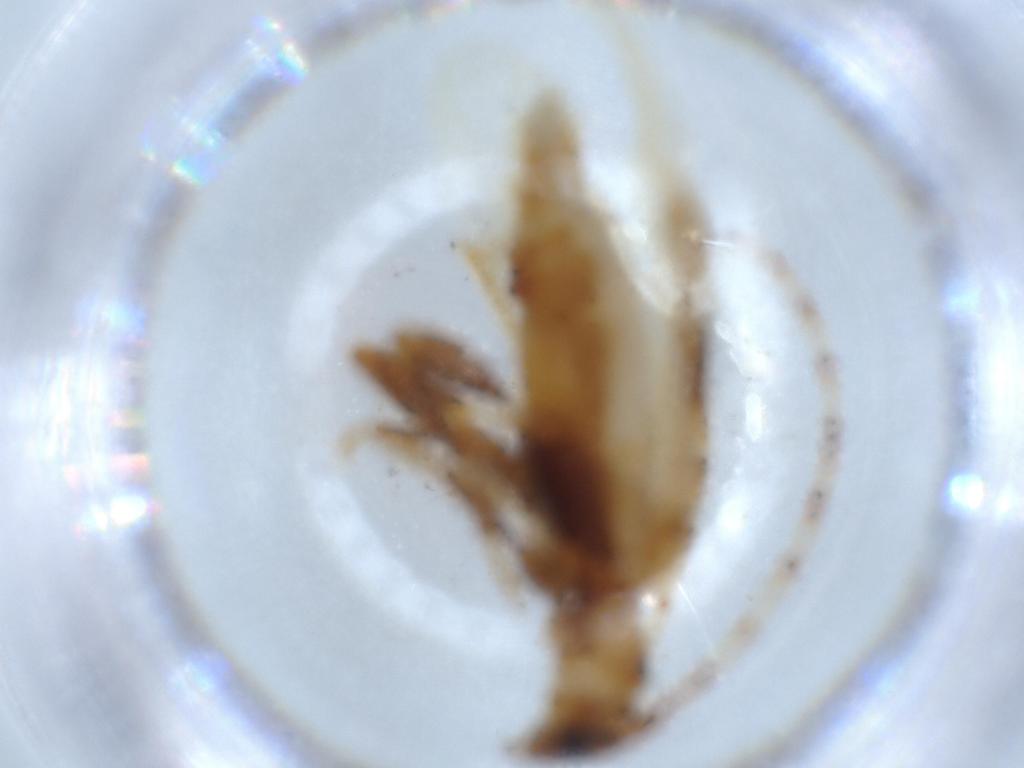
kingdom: Animalia
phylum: Arthropoda
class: Insecta
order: Coleoptera
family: Cerambycidae
